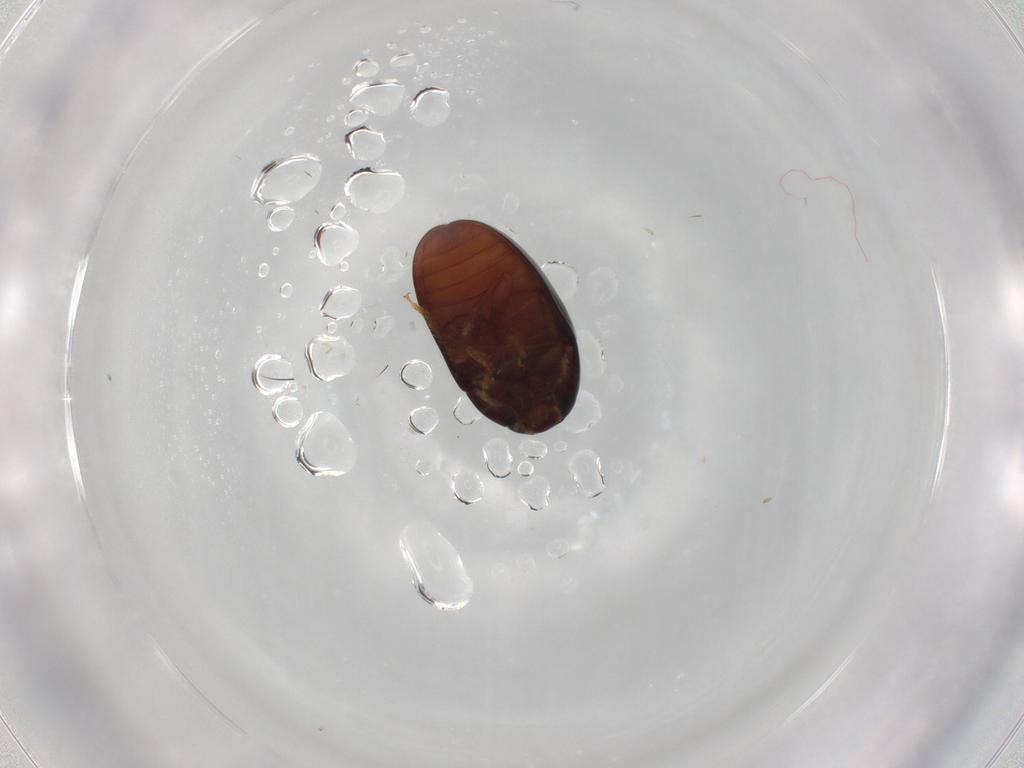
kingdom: Animalia
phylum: Arthropoda
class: Insecta
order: Coleoptera
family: Phalacridae
